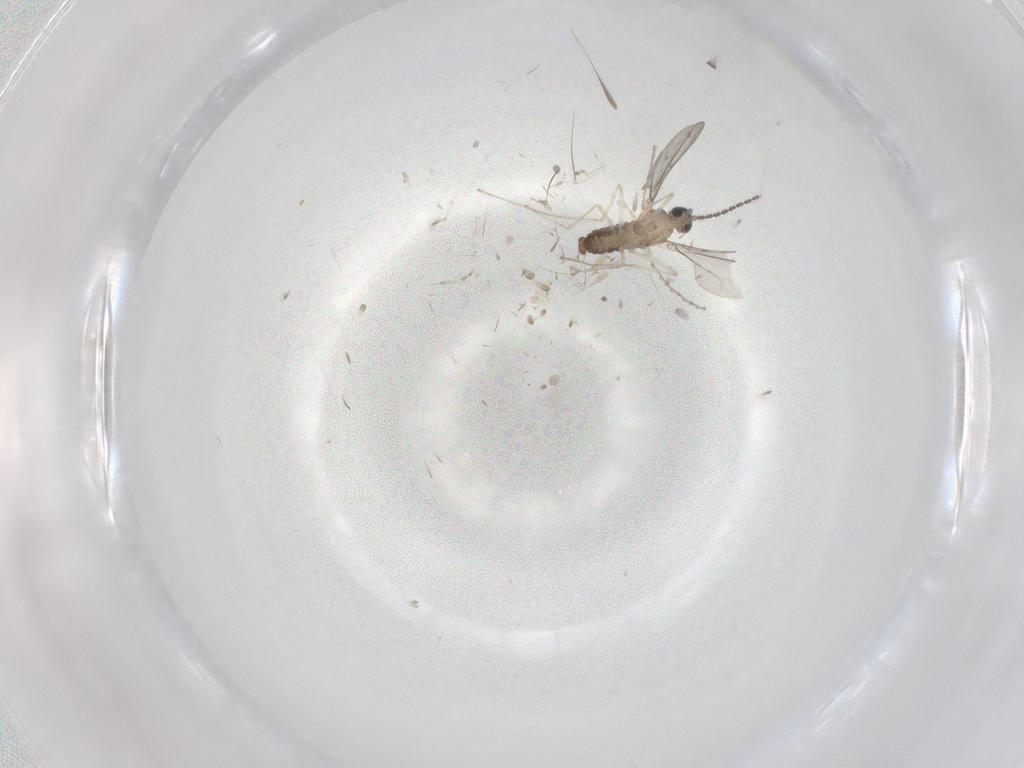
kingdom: Animalia
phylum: Arthropoda
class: Insecta
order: Diptera
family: Cecidomyiidae
